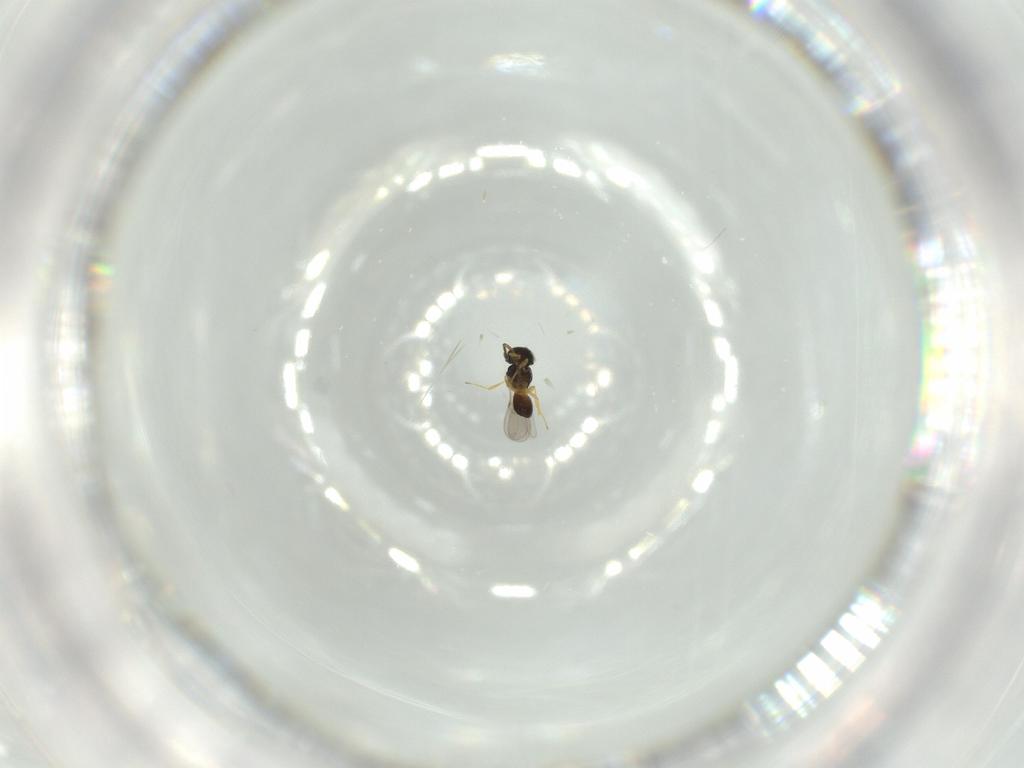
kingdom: Animalia
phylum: Arthropoda
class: Insecta
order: Hymenoptera
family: Scelionidae
